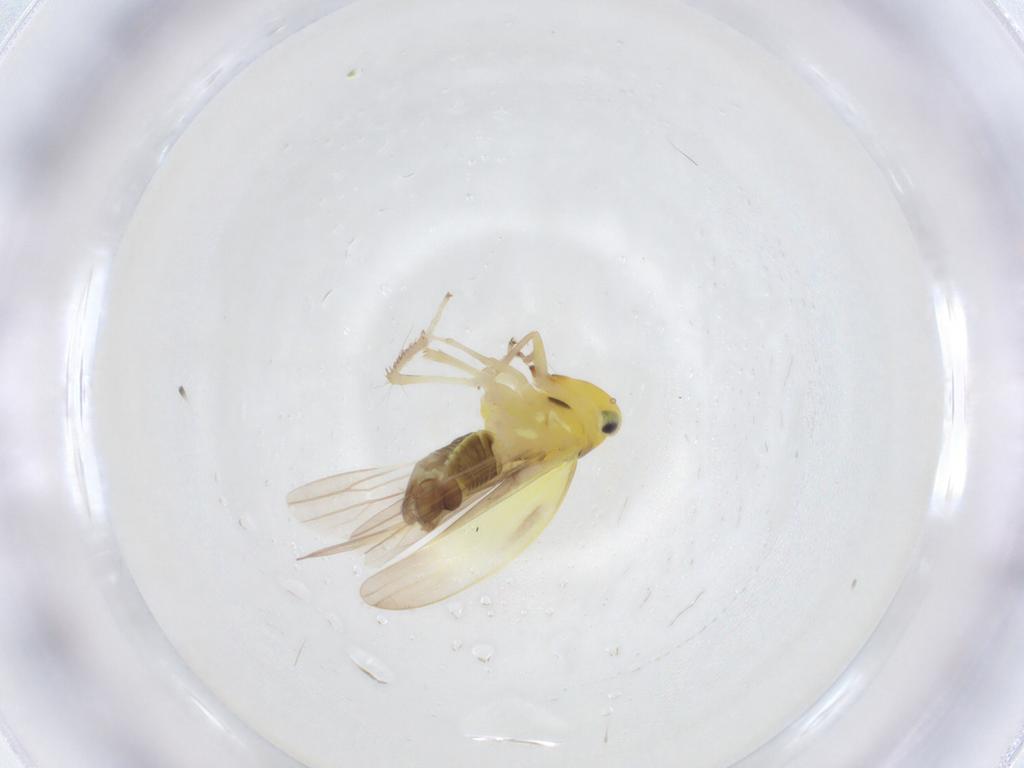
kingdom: Animalia
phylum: Arthropoda
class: Insecta
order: Hemiptera
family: Cicadellidae
